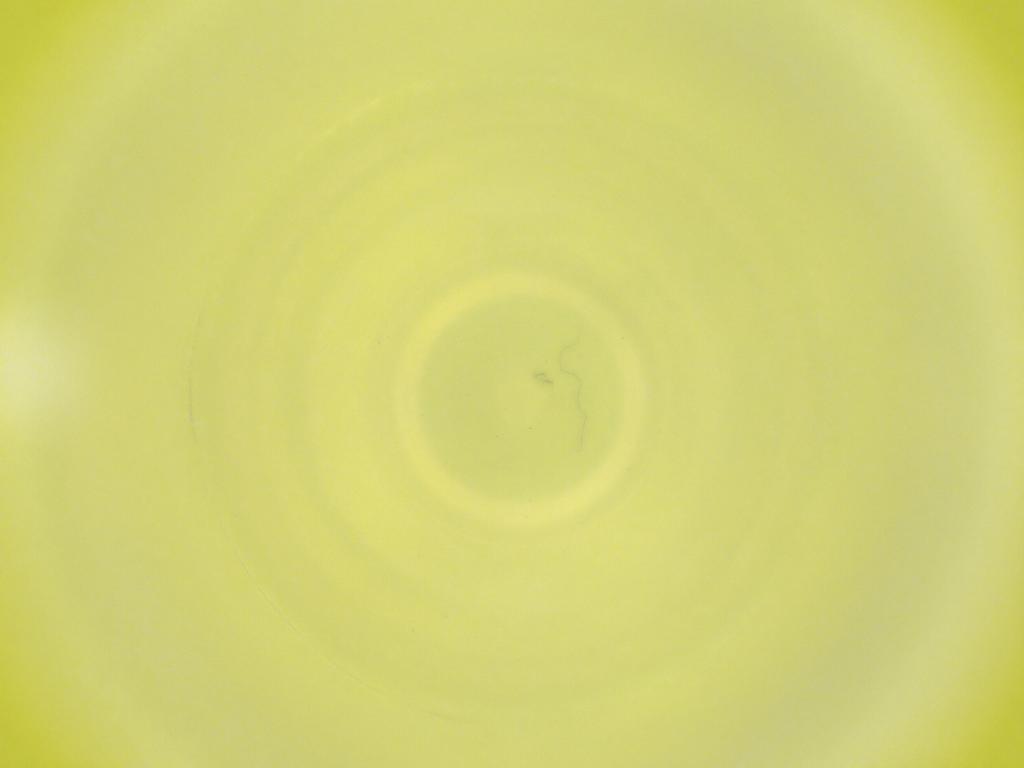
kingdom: Animalia
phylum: Arthropoda
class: Insecta
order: Diptera
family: Cecidomyiidae
